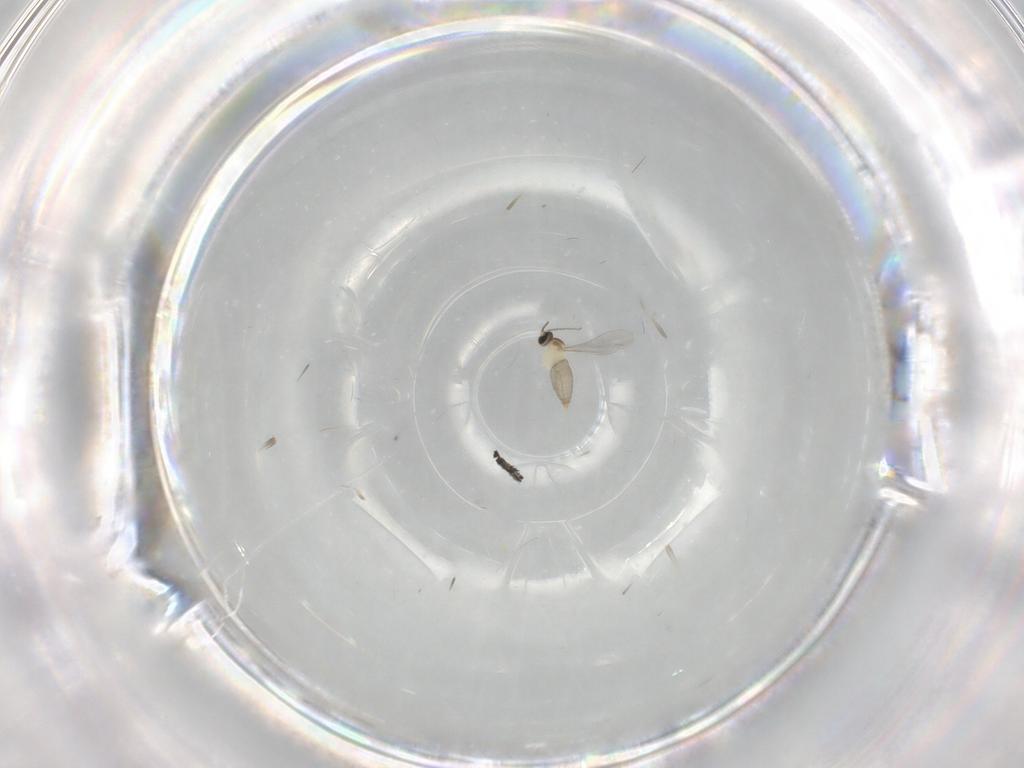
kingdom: Animalia
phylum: Arthropoda
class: Insecta
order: Diptera
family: Cecidomyiidae
